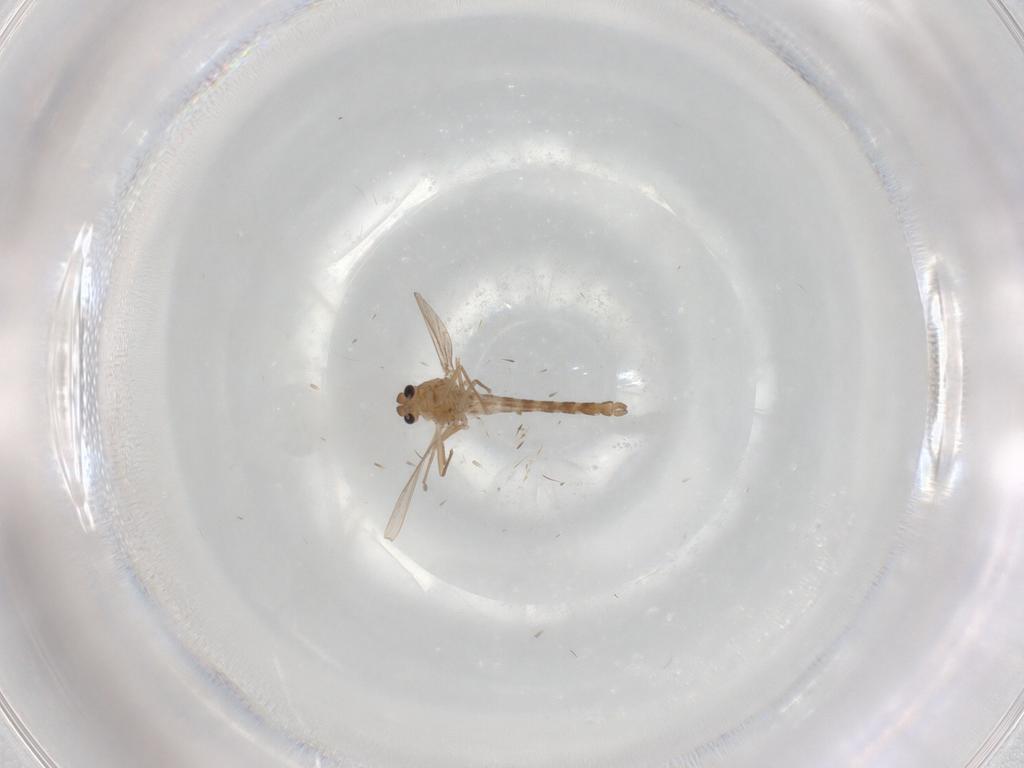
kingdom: Animalia
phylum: Arthropoda
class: Insecta
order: Diptera
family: Chironomidae
